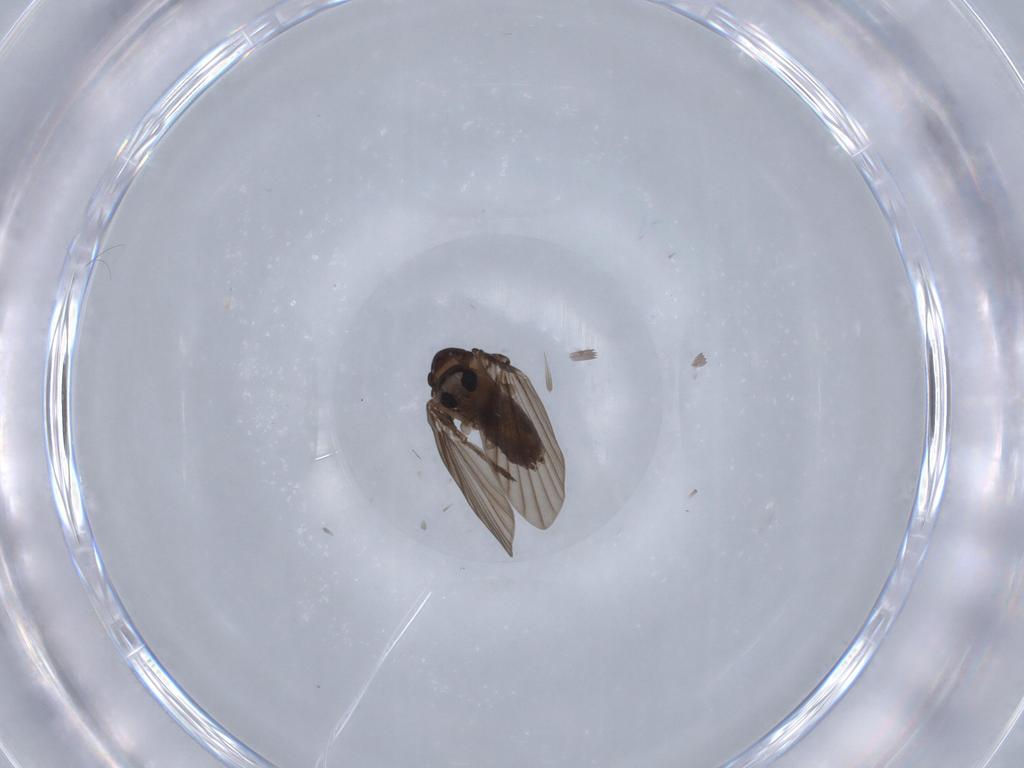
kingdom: Animalia
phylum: Arthropoda
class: Insecta
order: Diptera
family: Psychodidae
